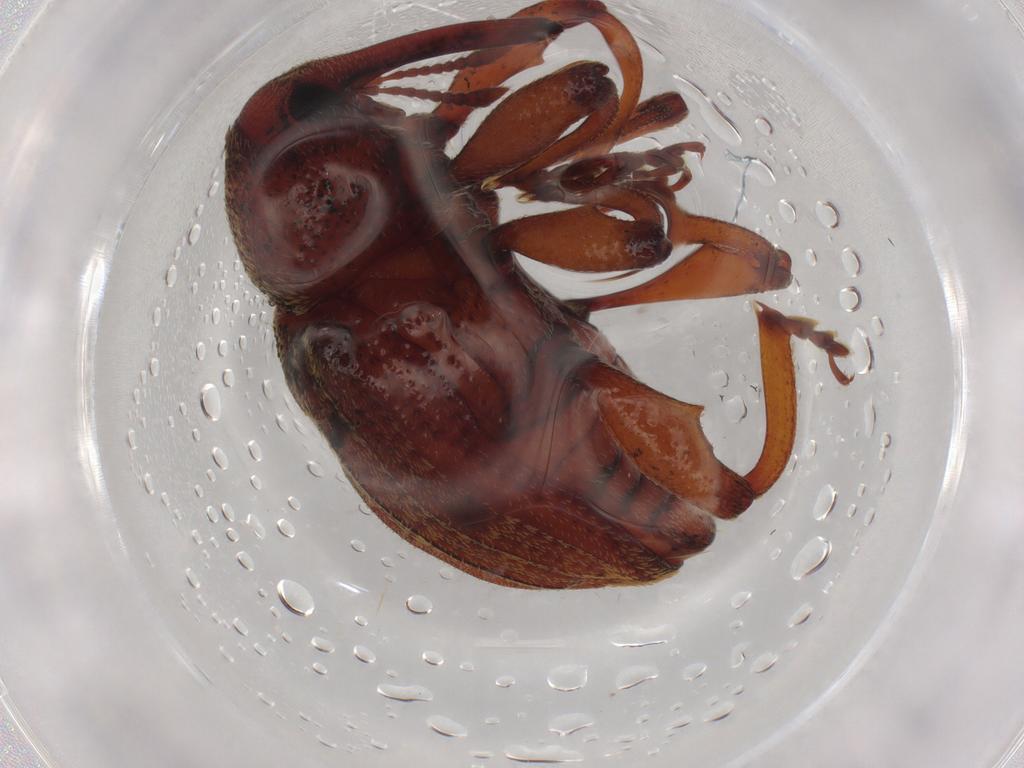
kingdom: Animalia
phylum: Arthropoda
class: Insecta
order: Coleoptera
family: Curculionidae
